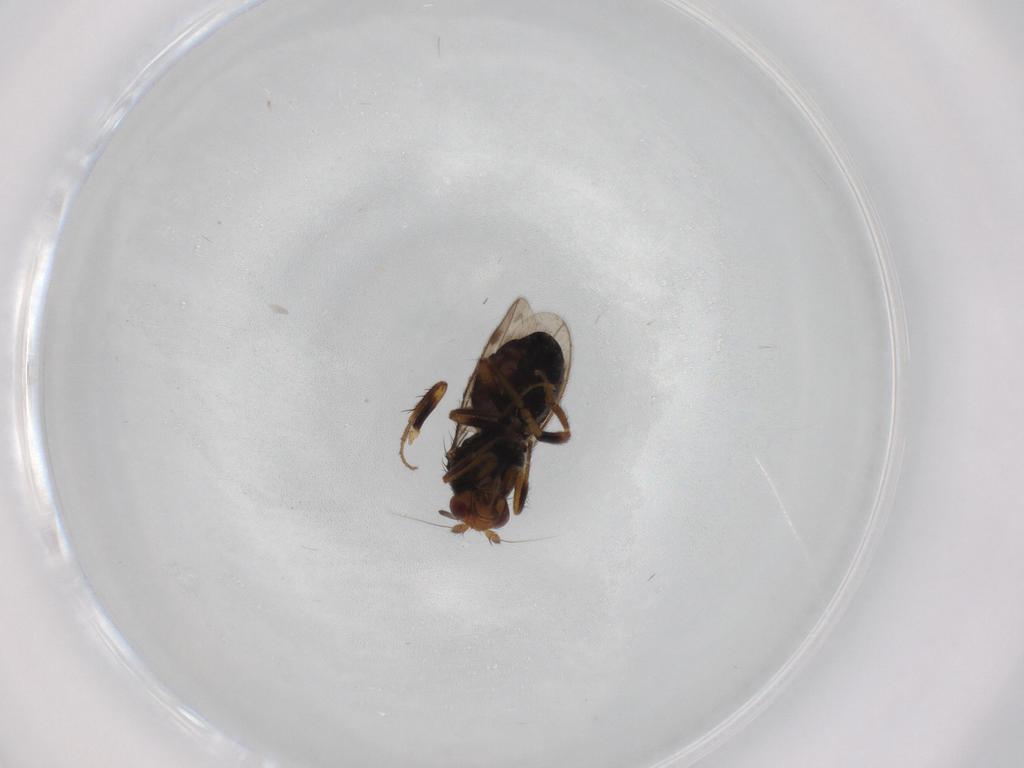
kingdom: Animalia
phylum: Arthropoda
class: Insecta
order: Diptera
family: Sphaeroceridae
